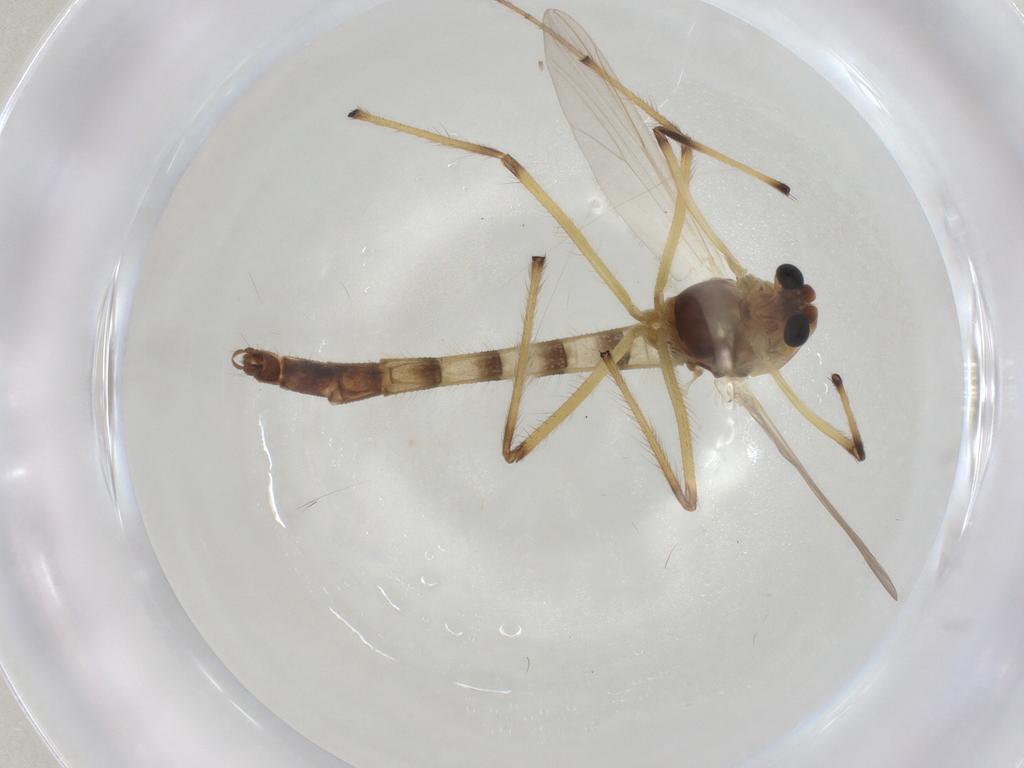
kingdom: Animalia
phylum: Arthropoda
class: Insecta
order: Diptera
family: Chironomidae
